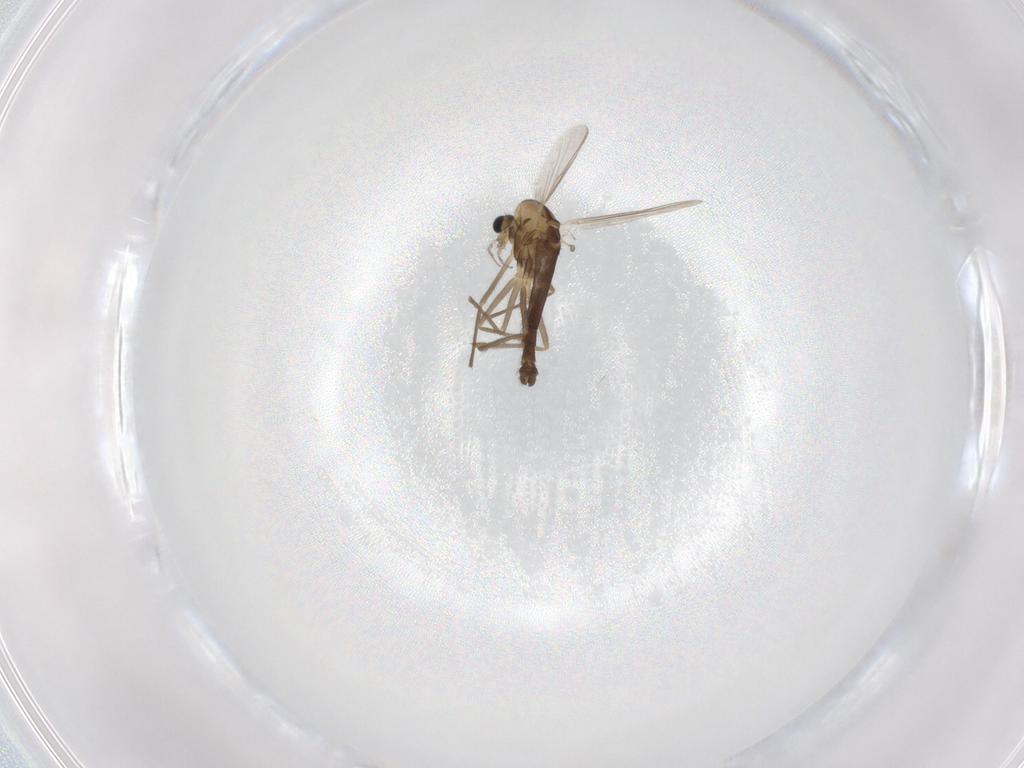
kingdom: Animalia
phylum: Arthropoda
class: Insecta
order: Diptera
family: Chironomidae
